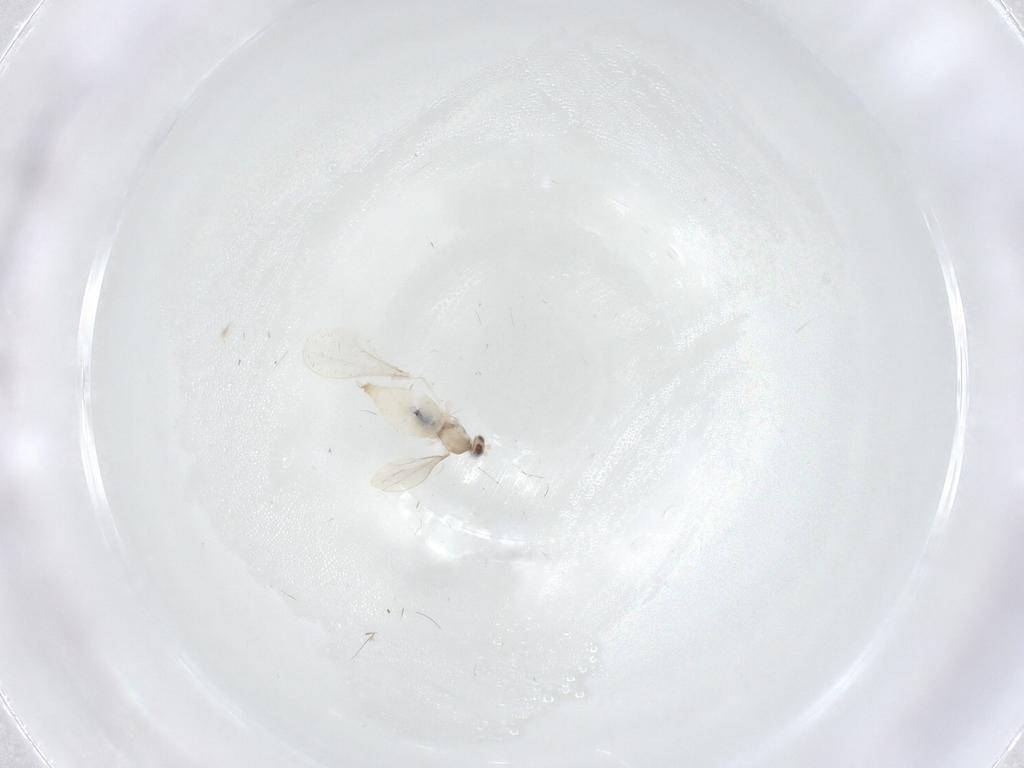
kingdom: Animalia
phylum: Arthropoda
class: Insecta
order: Diptera
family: Cecidomyiidae
